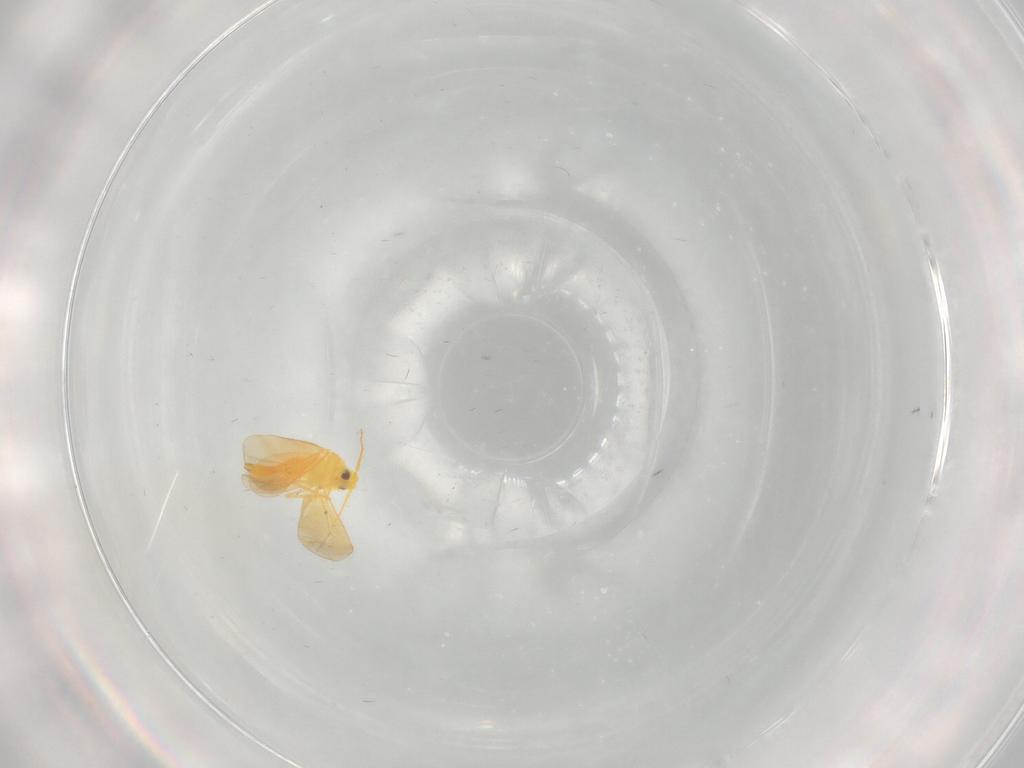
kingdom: Animalia
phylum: Arthropoda
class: Insecta
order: Hemiptera
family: Aleyrodidae
